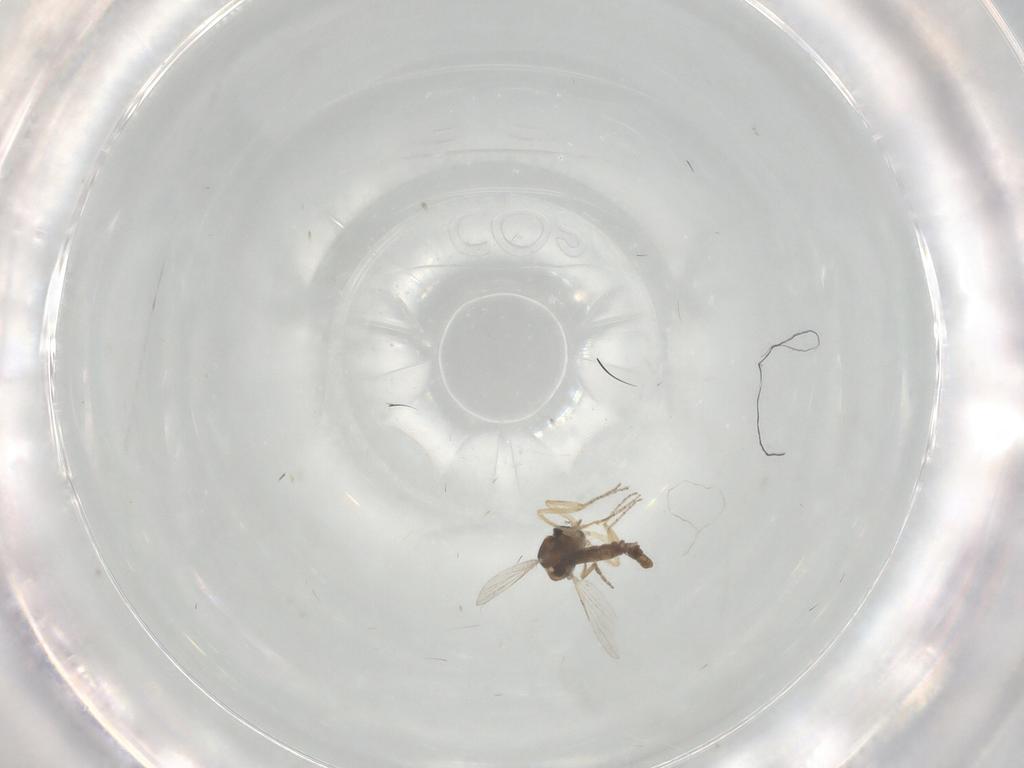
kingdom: Animalia
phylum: Arthropoda
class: Insecta
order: Diptera
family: Ceratopogonidae
